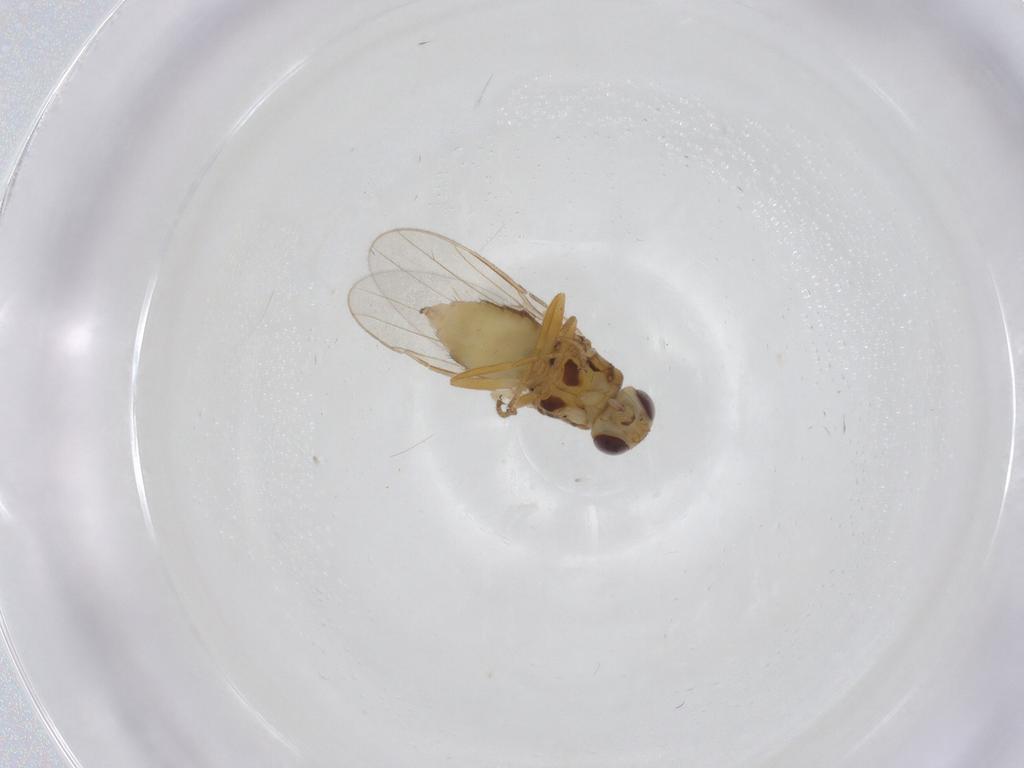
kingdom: Animalia
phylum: Arthropoda
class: Insecta
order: Diptera
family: Chloropidae
